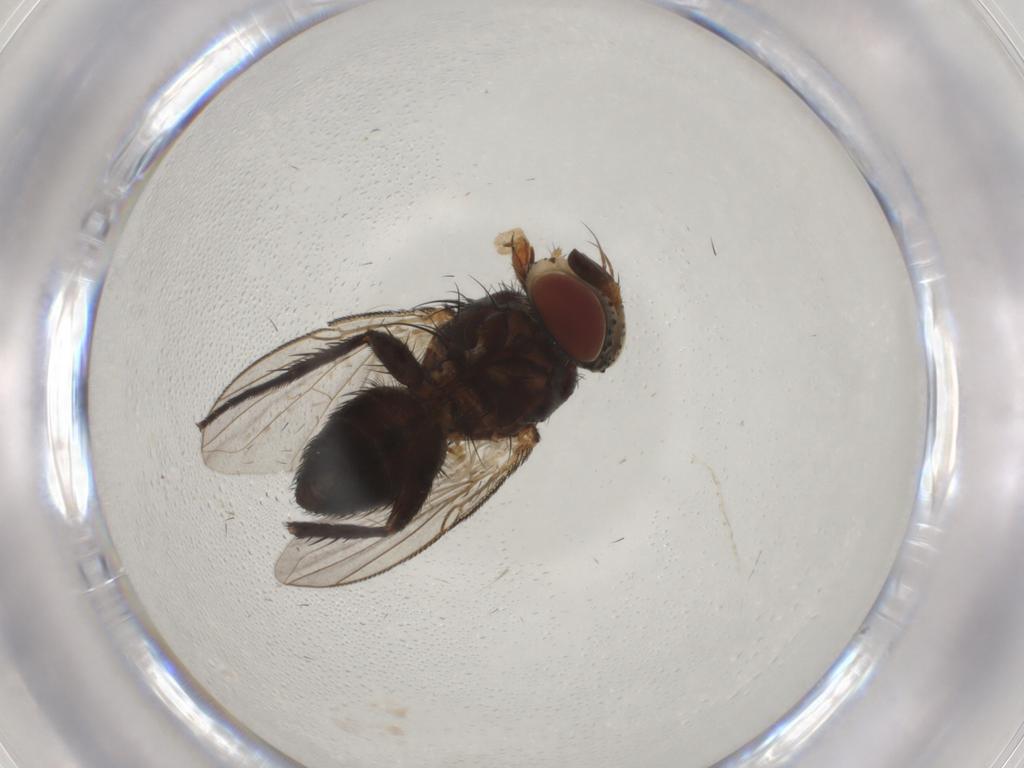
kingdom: Animalia
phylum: Arthropoda
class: Insecta
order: Diptera
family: Tachinidae
